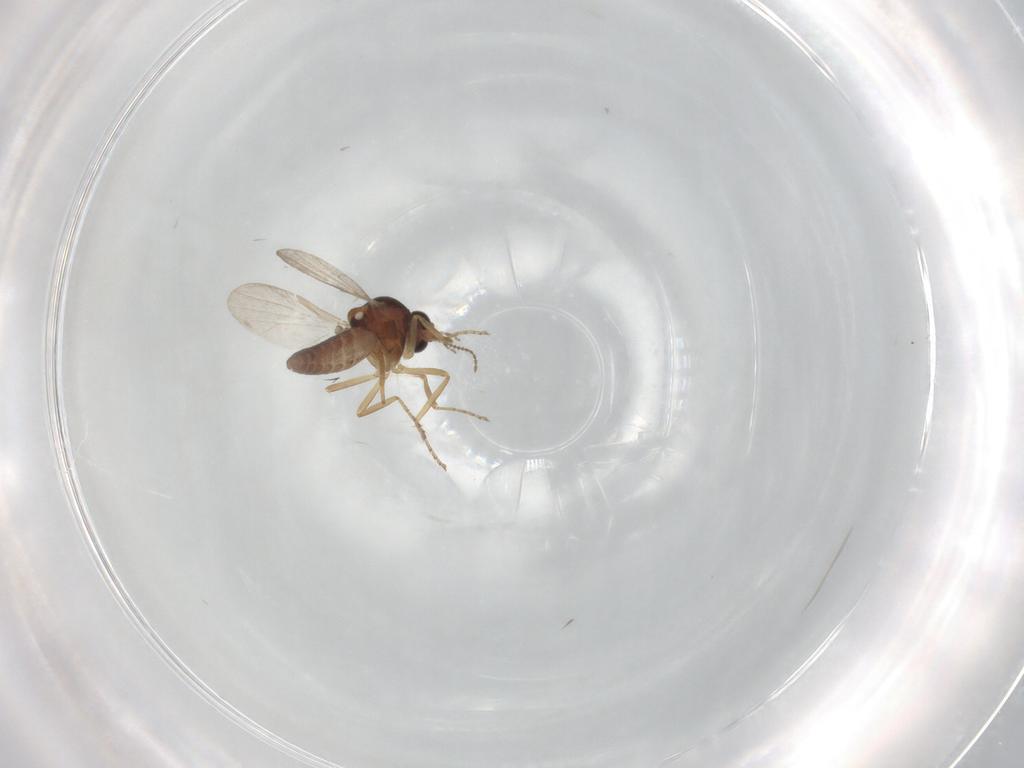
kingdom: Animalia
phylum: Arthropoda
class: Insecta
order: Diptera
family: Ceratopogonidae
